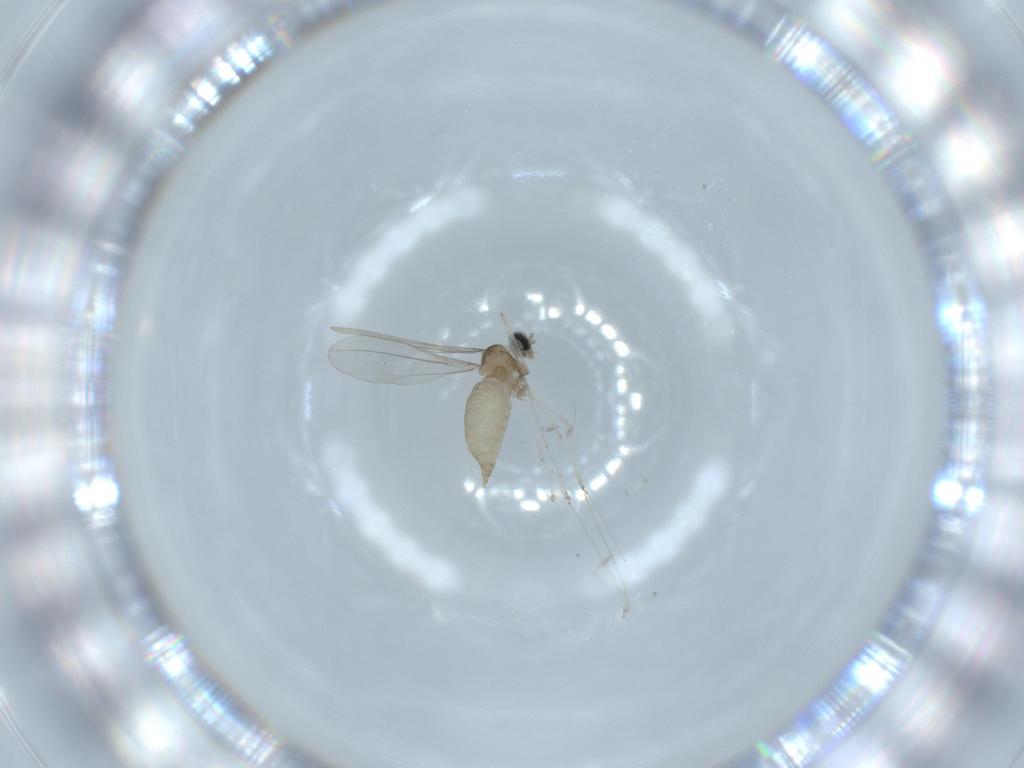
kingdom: Animalia
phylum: Arthropoda
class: Insecta
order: Diptera
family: Cecidomyiidae
